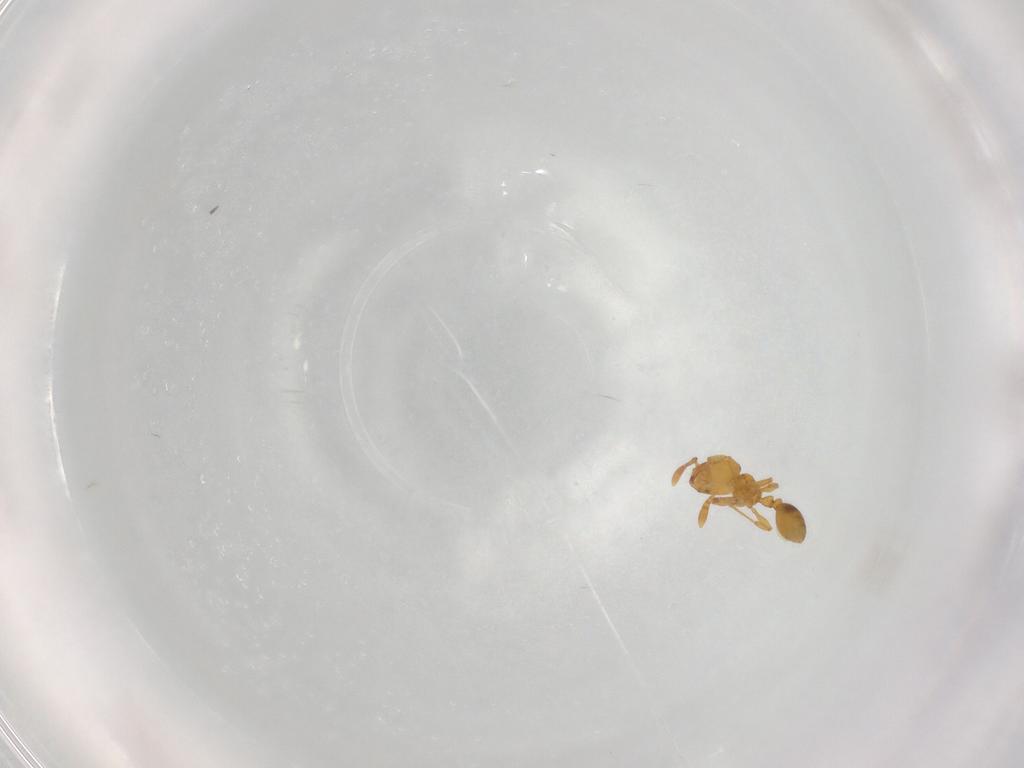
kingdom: Animalia
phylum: Arthropoda
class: Insecta
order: Hymenoptera
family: Formicidae
